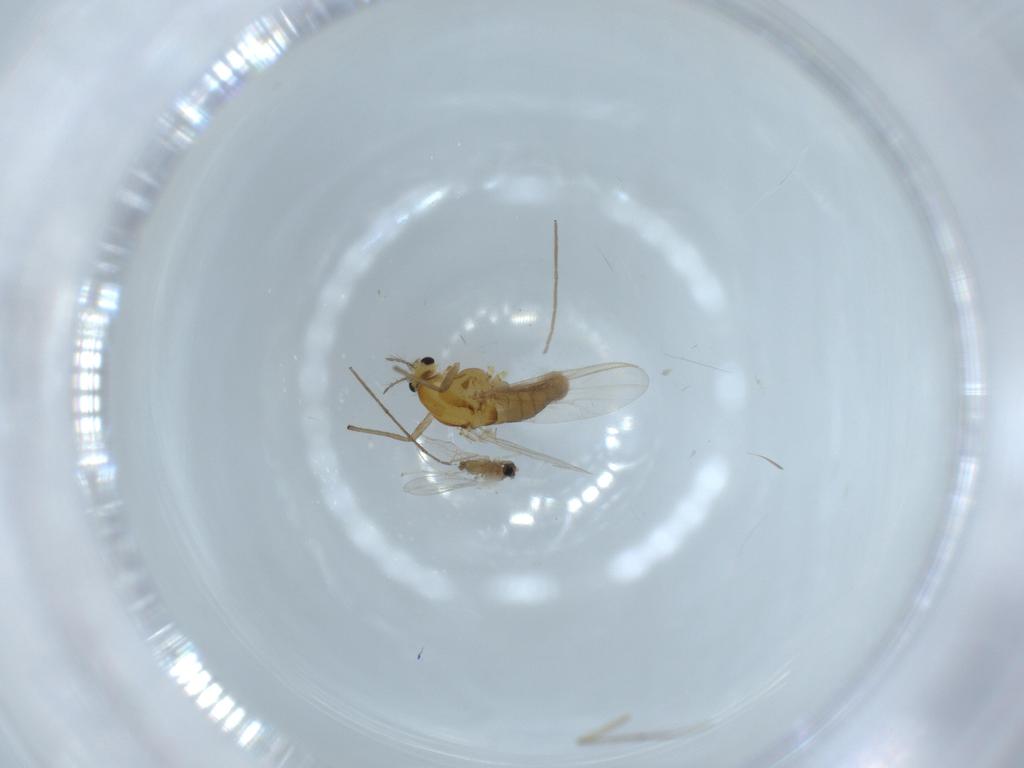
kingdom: Animalia
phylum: Arthropoda
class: Insecta
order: Diptera
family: Chironomidae
